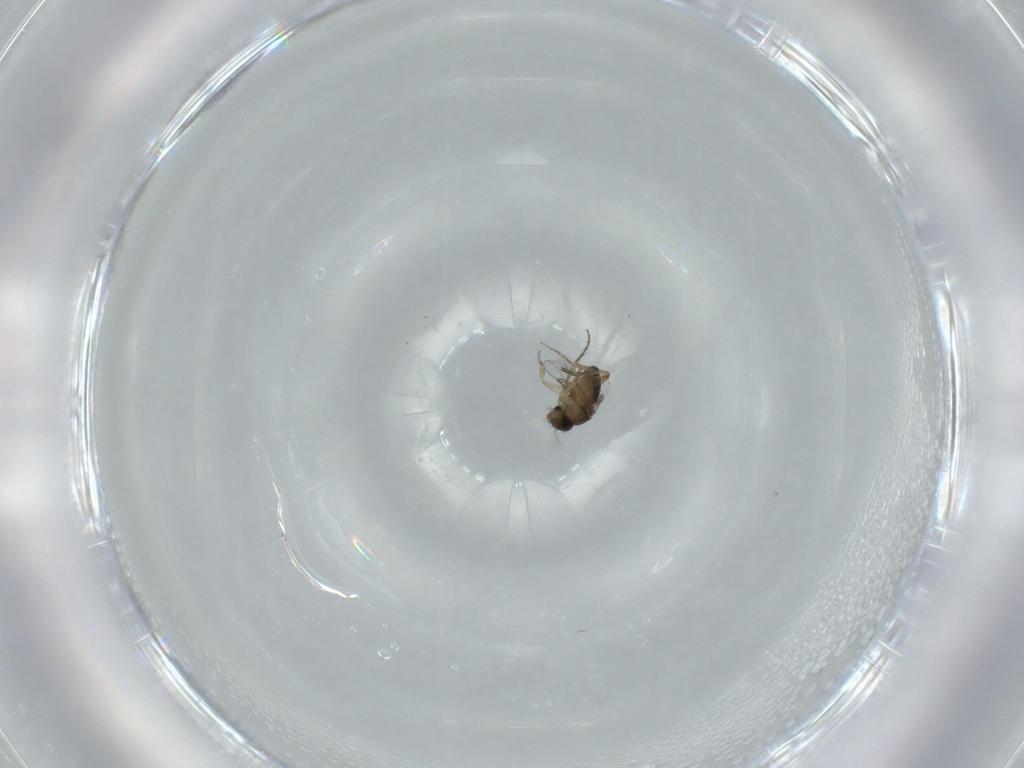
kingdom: Animalia
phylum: Arthropoda
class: Insecta
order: Diptera
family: Phoridae
